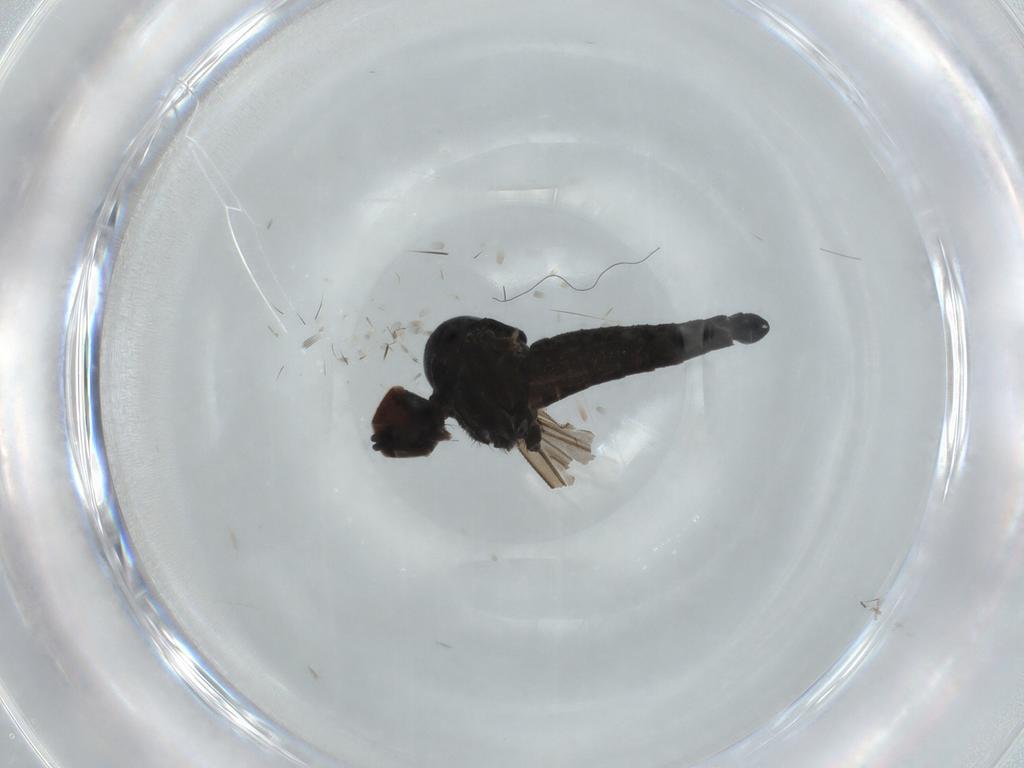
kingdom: Animalia
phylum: Arthropoda
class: Insecta
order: Diptera
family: Hybotidae
